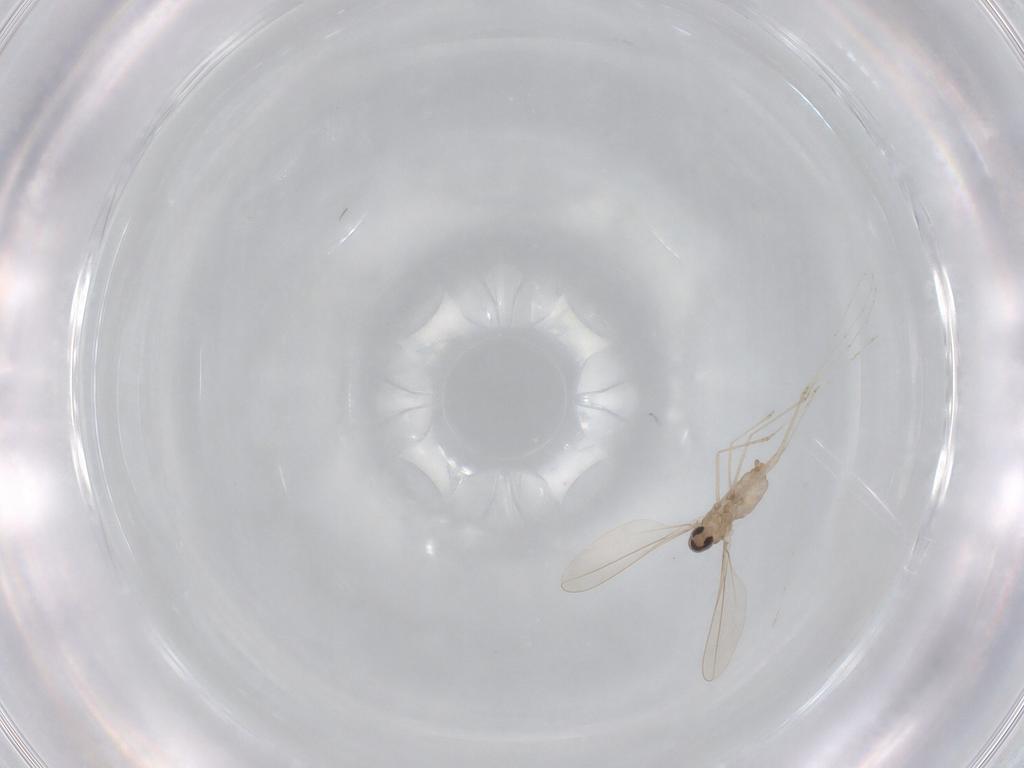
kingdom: Animalia
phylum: Arthropoda
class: Insecta
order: Diptera
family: Cecidomyiidae
